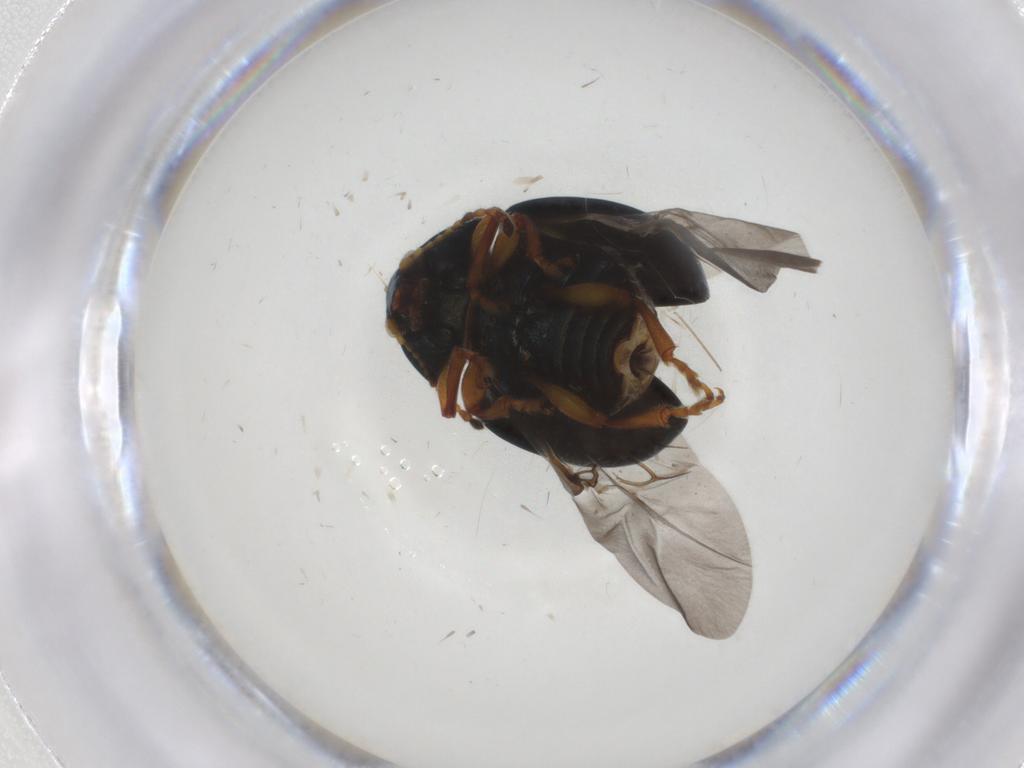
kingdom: Animalia
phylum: Arthropoda
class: Insecta
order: Coleoptera
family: Chrysomelidae
